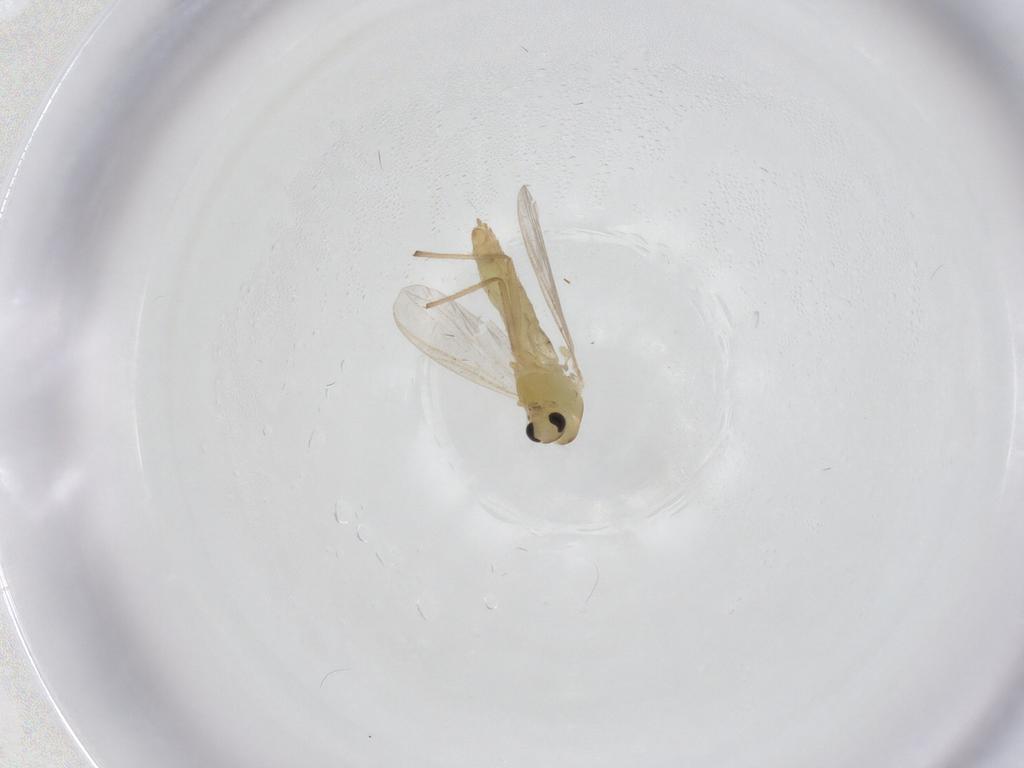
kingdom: Animalia
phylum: Arthropoda
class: Insecta
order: Diptera
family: Chironomidae
